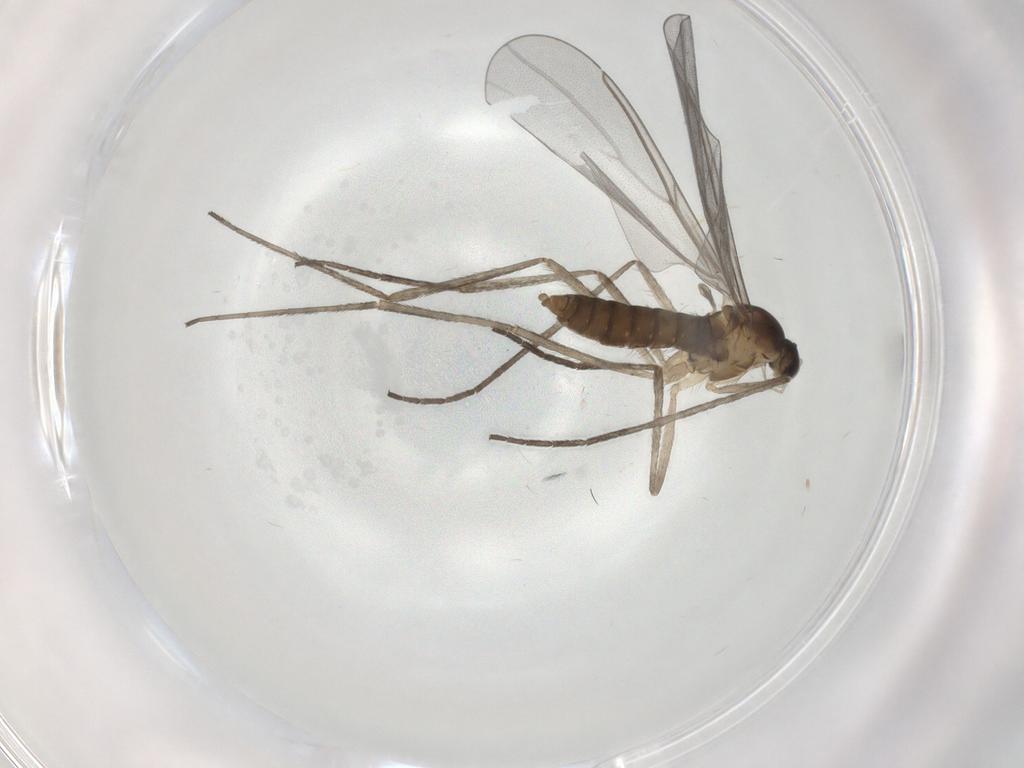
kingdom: Animalia
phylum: Arthropoda
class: Insecta
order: Diptera
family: Cecidomyiidae
